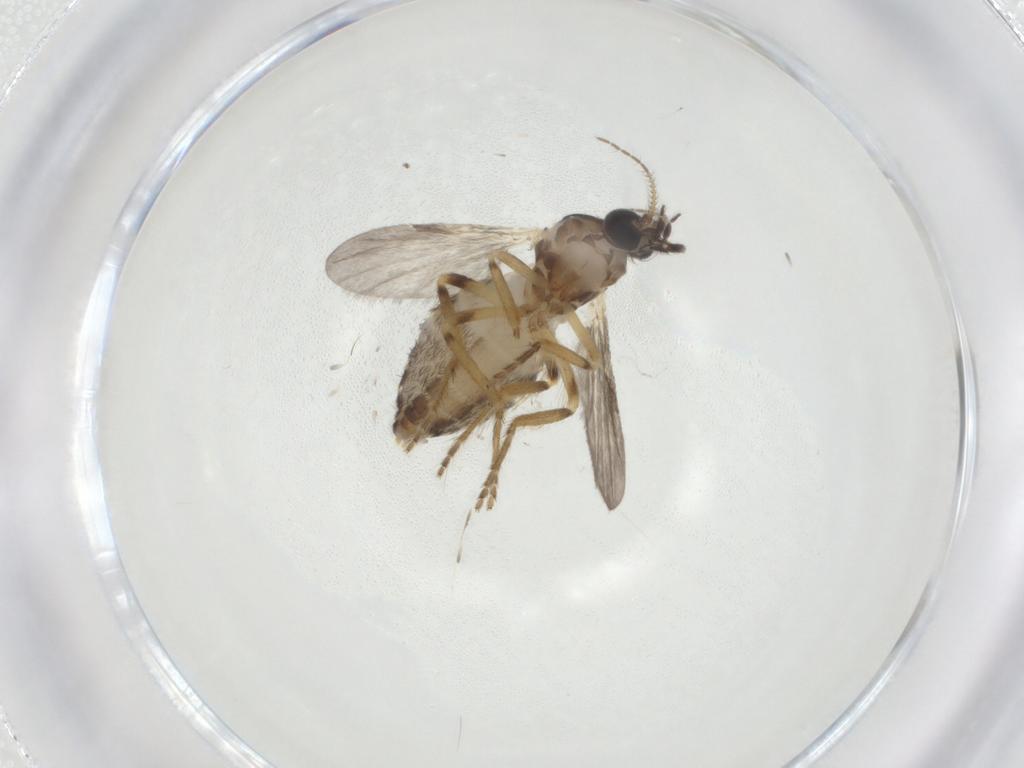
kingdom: Animalia
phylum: Arthropoda
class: Insecta
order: Diptera
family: Ceratopogonidae
